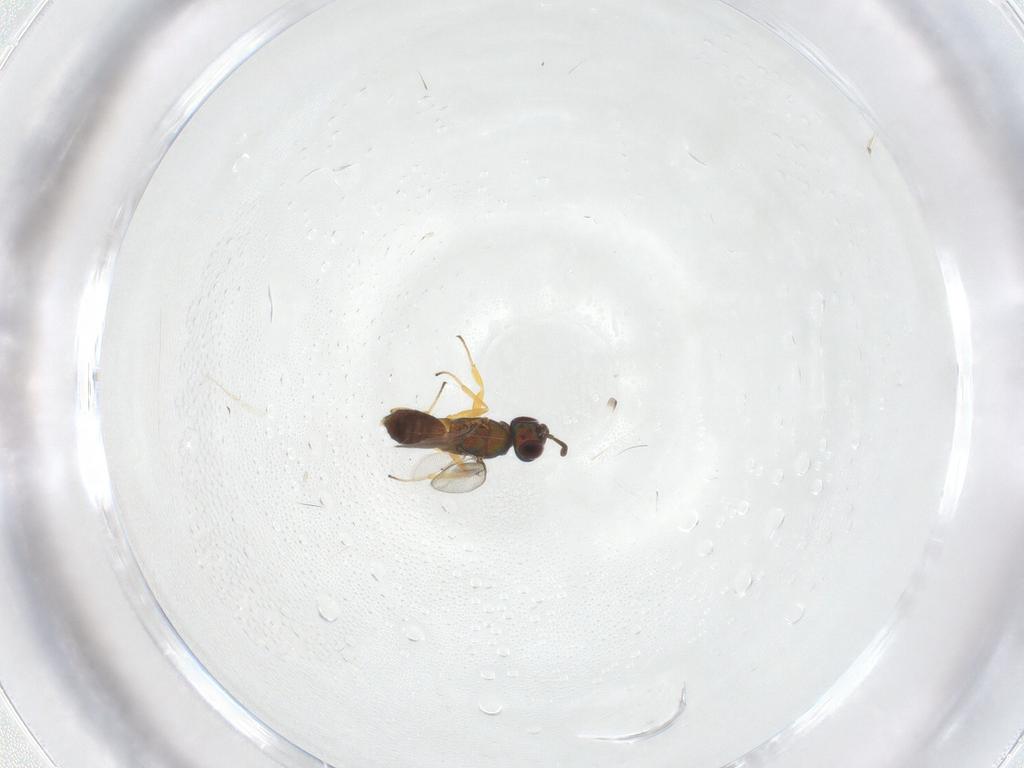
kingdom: Animalia
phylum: Arthropoda
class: Insecta
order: Hymenoptera
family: Eupelmidae
